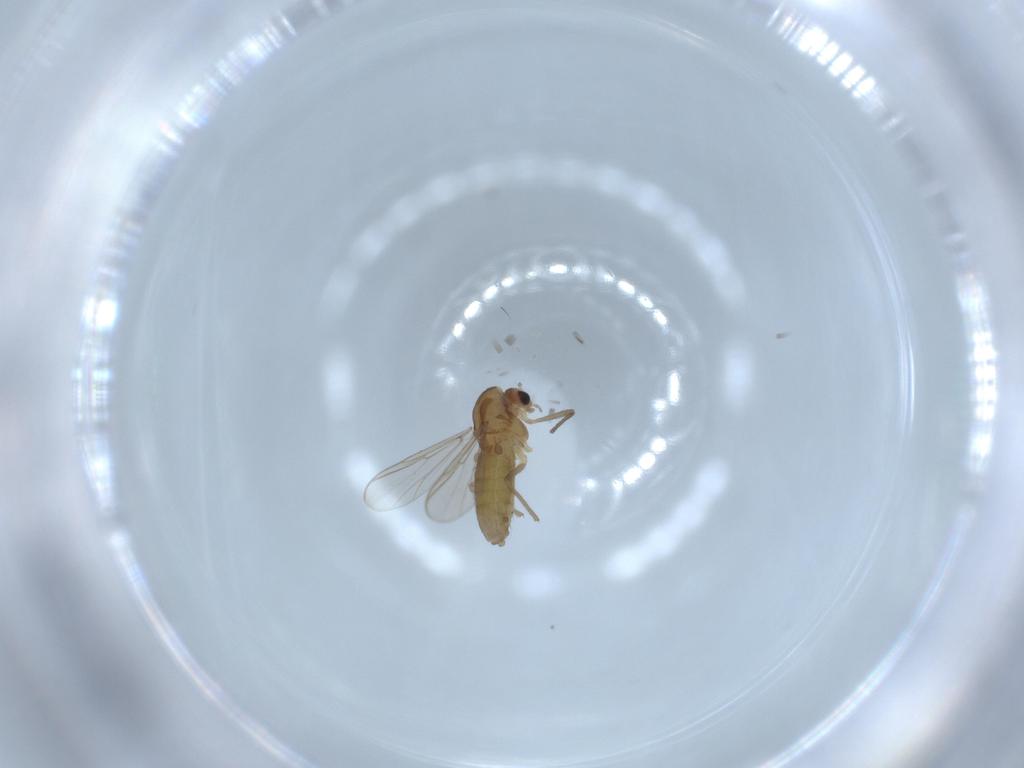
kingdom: Animalia
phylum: Arthropoda
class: Insecta
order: Diptera
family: Chironomidae
